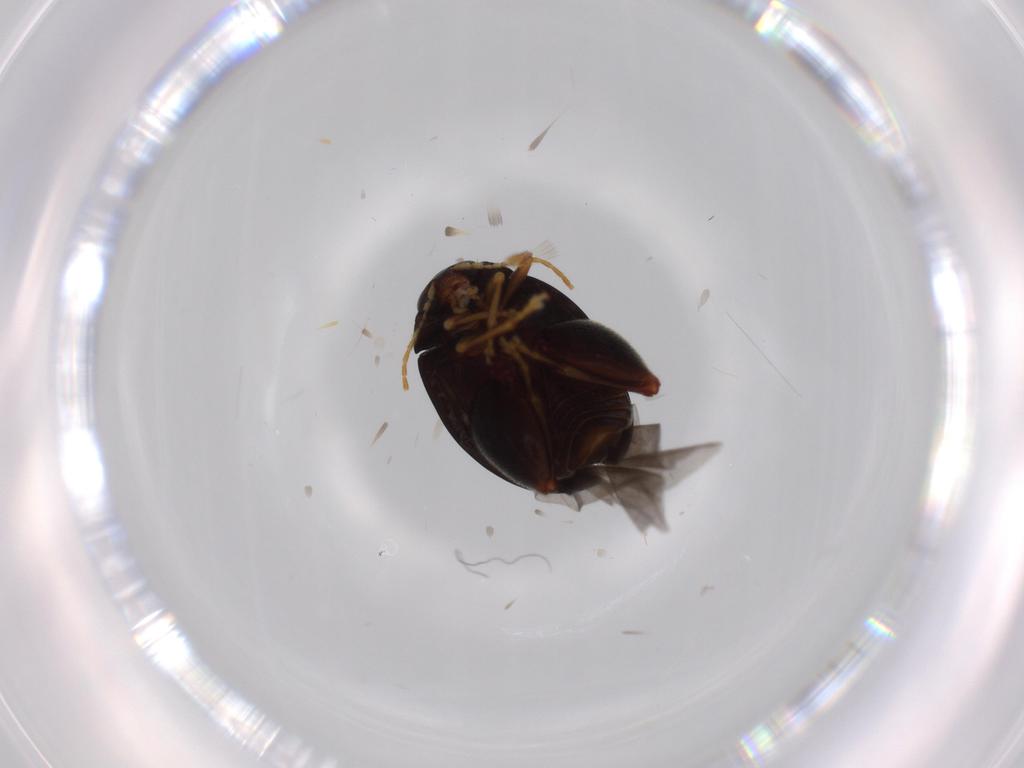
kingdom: Animalia
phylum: Arthropoda
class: Insecta
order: Coleoptera
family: Chrysomelidae
